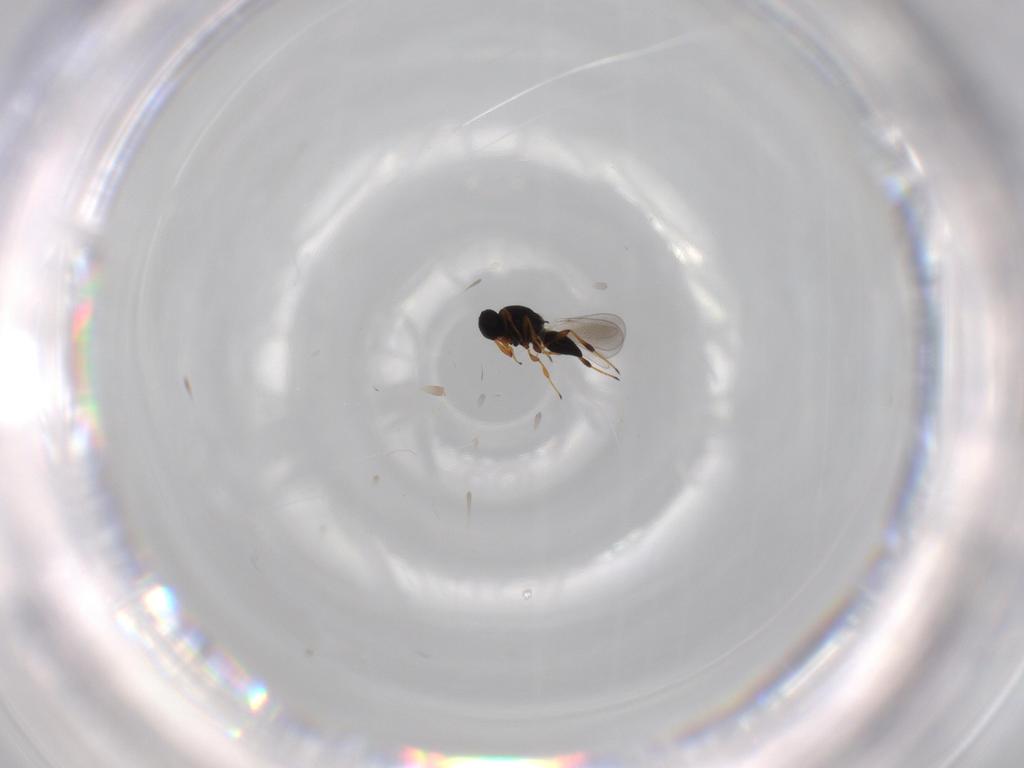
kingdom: Animalia
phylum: Arthropoda
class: Insecta
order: Hymenoptera
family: Platygastridae
